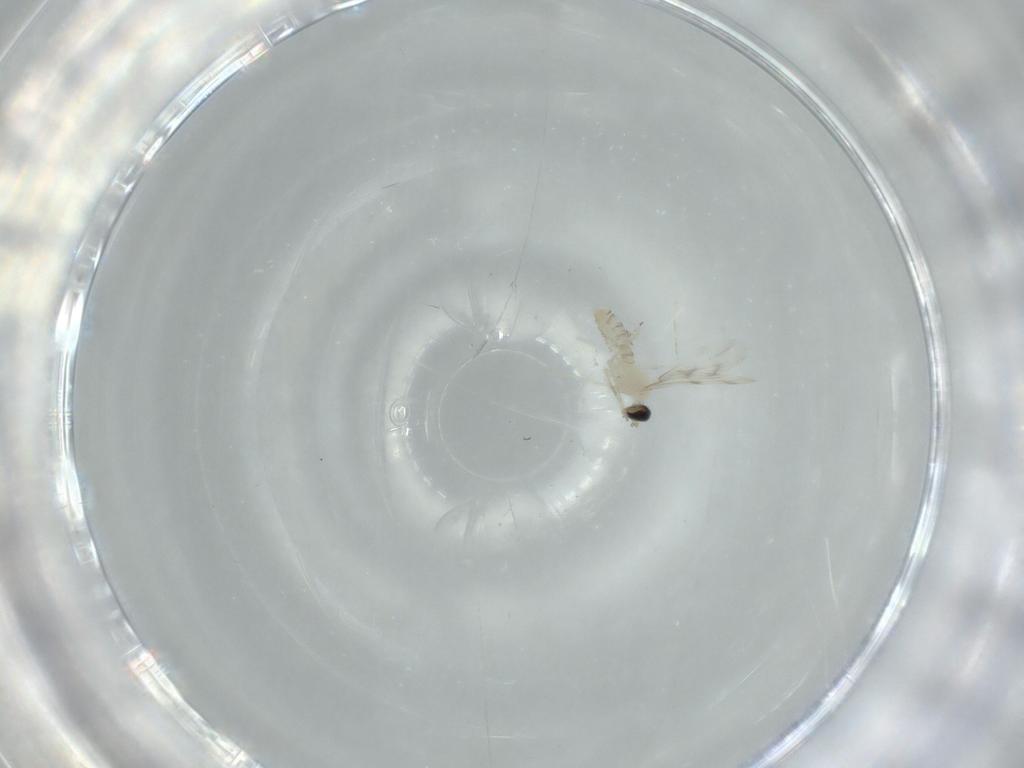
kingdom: Animalia
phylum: Arthropoda
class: Insecta
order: Diptera
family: Cecidomyiidae
